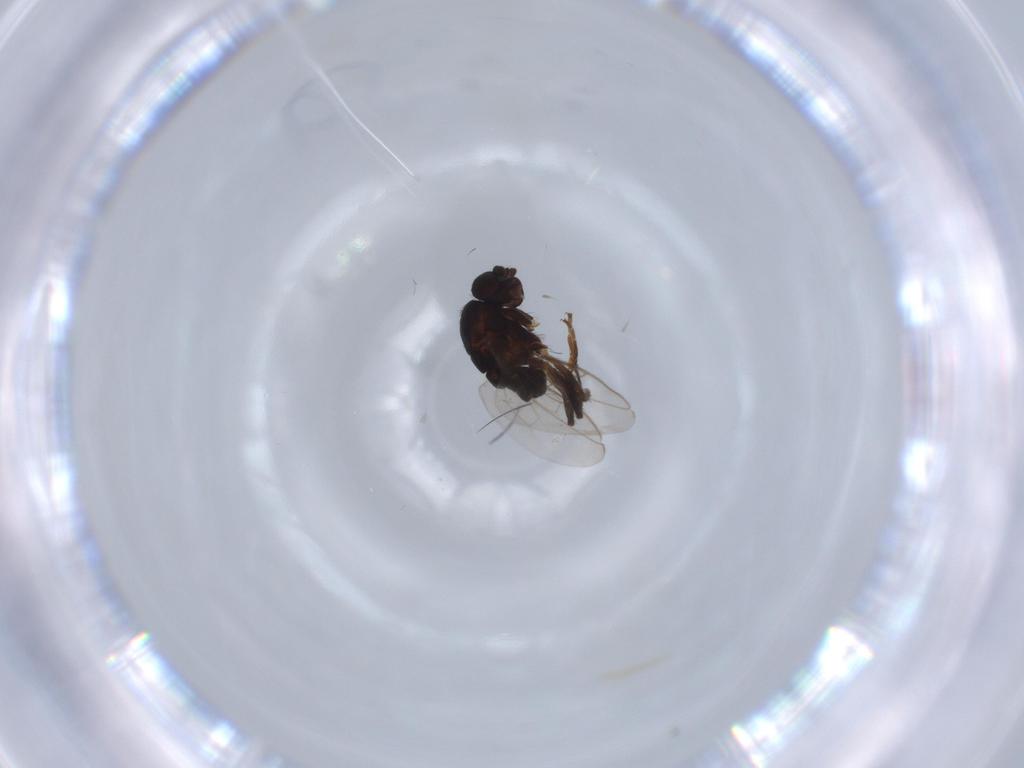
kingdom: Animalia
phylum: Arthropoda
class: Insecta
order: Diptera
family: Sphaeroceridae
